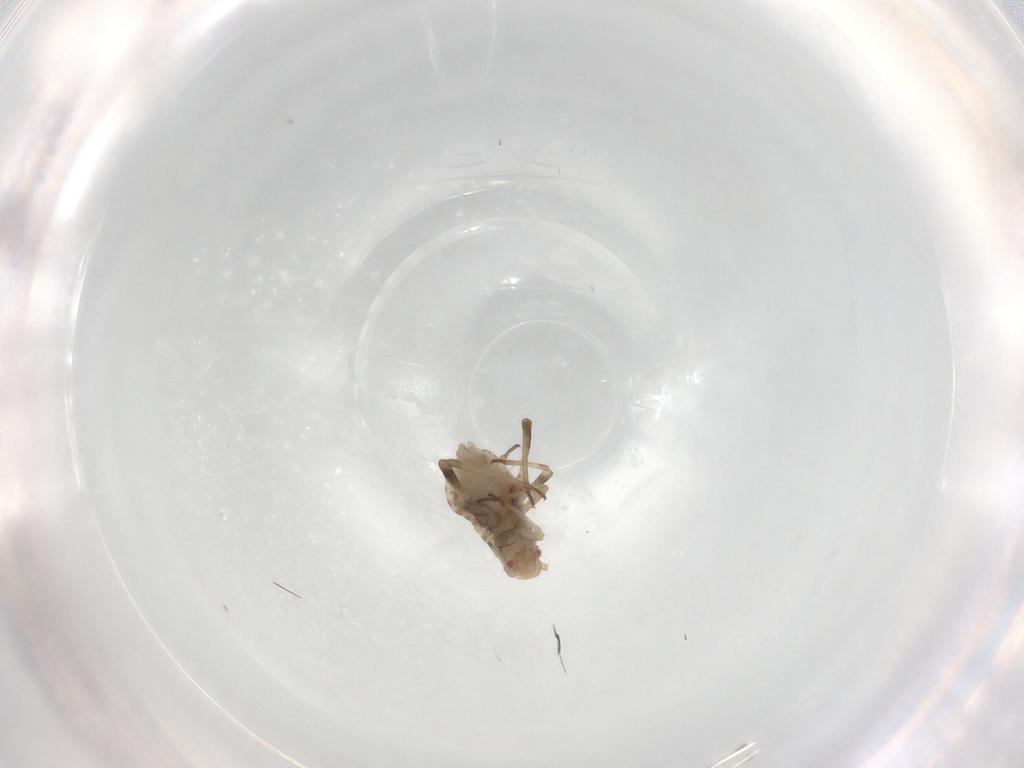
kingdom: Animalia
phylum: Arthropoda
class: Insecta
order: Hemiptera
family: Aphididae
